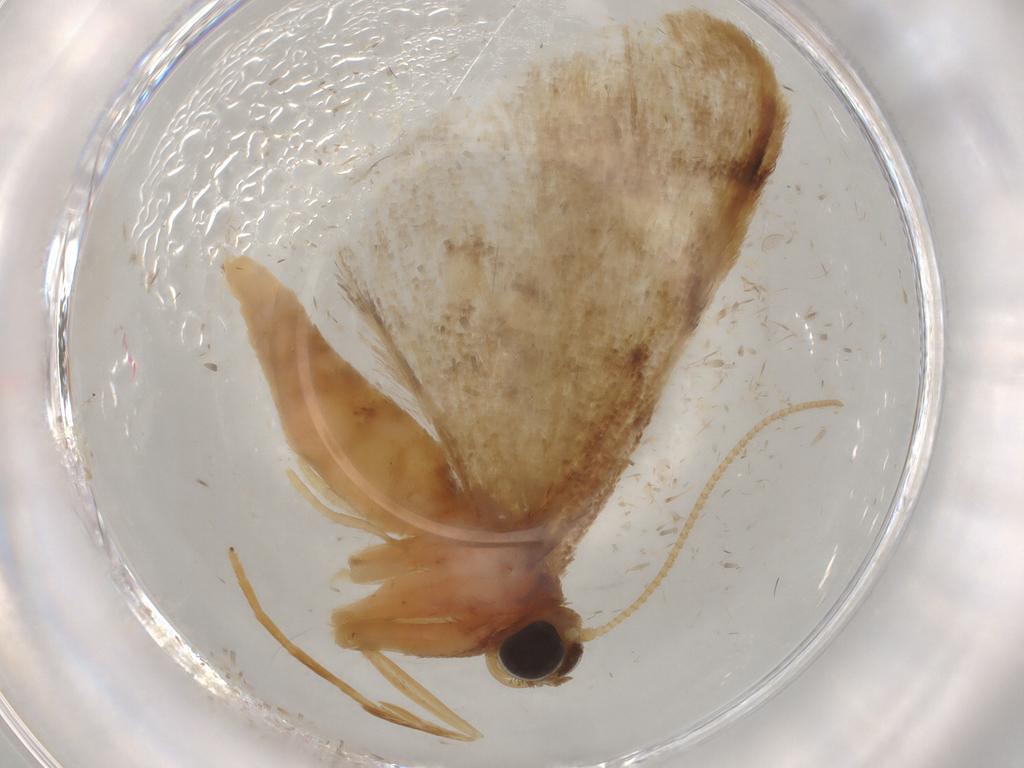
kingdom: Animalia
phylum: Arthropoda
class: Insecta
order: Lepidoptera
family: Geometridae
